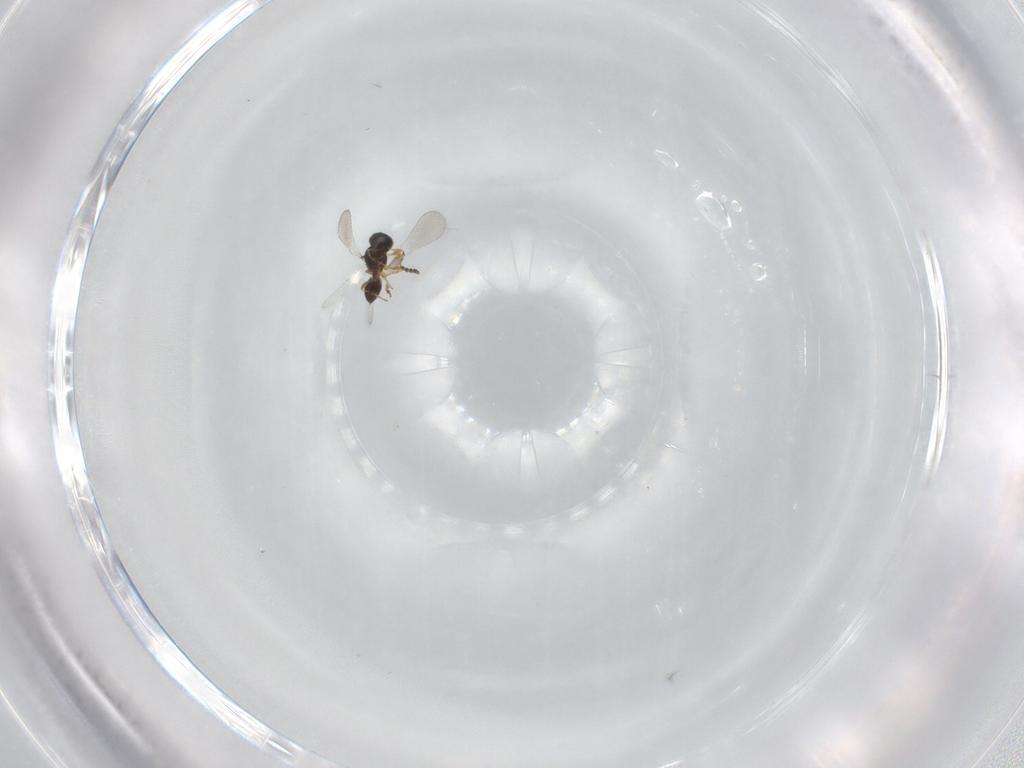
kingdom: Animalia
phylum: Arthropoda
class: Insecta
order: Hymenoptera
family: Platygastridae
